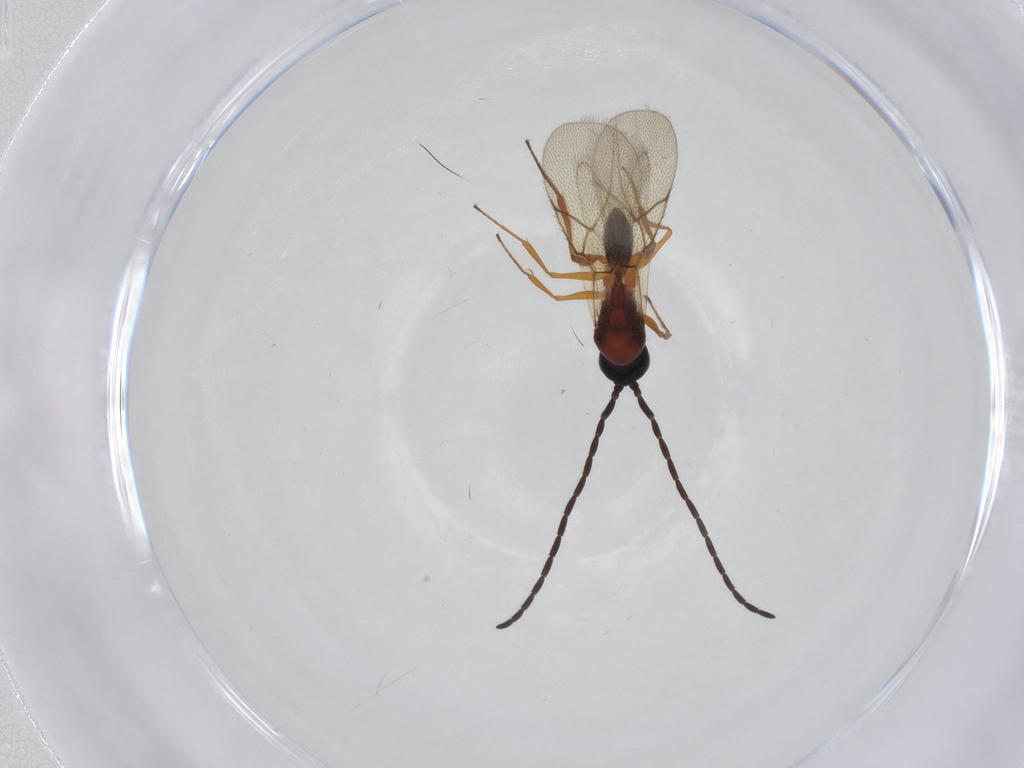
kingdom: Animalia
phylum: Arthropoda
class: Insecta
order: Hymenoptera
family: Figitidae
